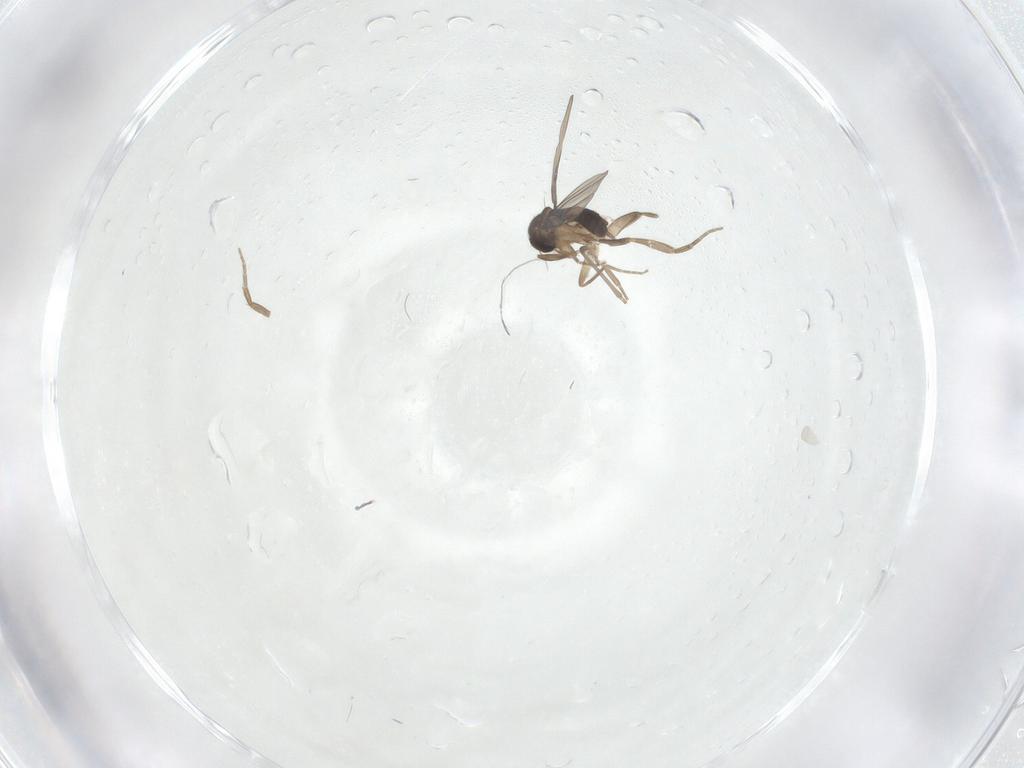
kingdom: Animalia
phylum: Arthropoda
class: Insecta
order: Diptera
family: Phoridae
